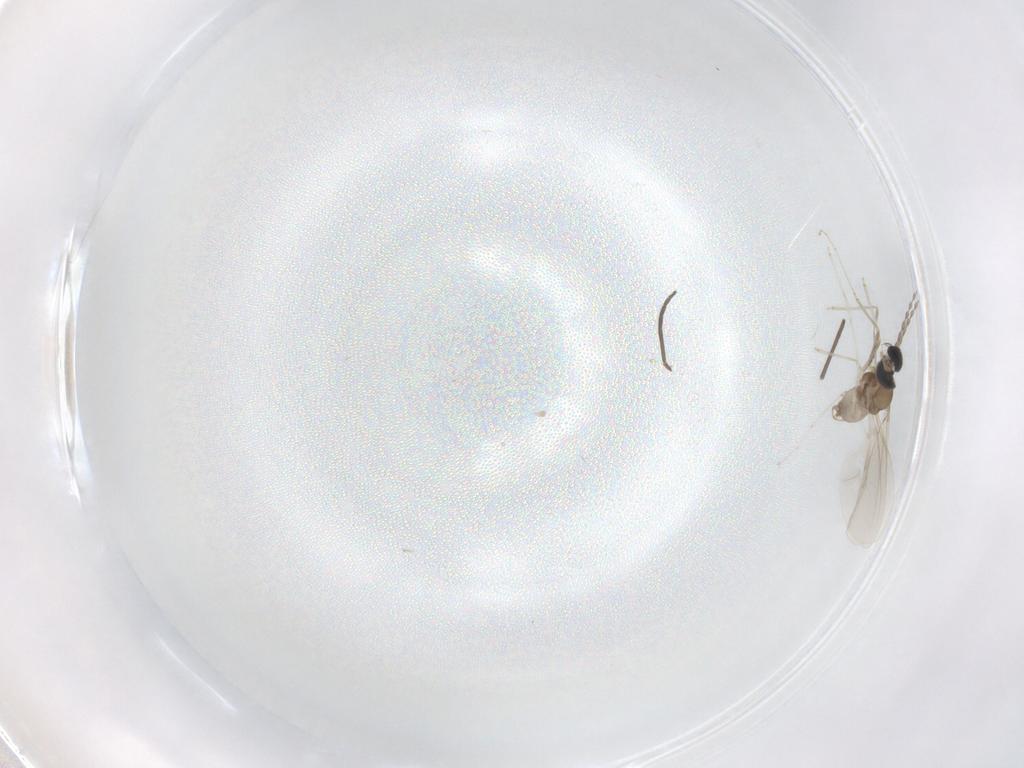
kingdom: Animalia
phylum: Arthropoda
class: Insecta
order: Diptera
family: Cecidomyiidae
